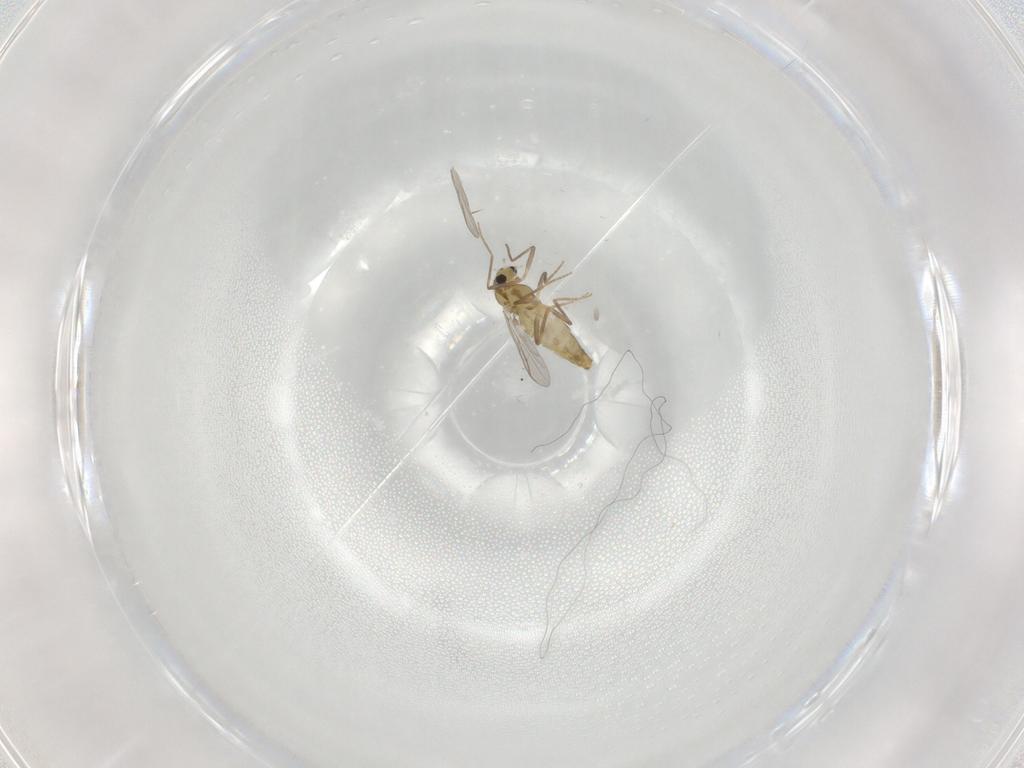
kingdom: Animalia
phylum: Arthropoda
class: Insecta
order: Diptera
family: Chironomidae
